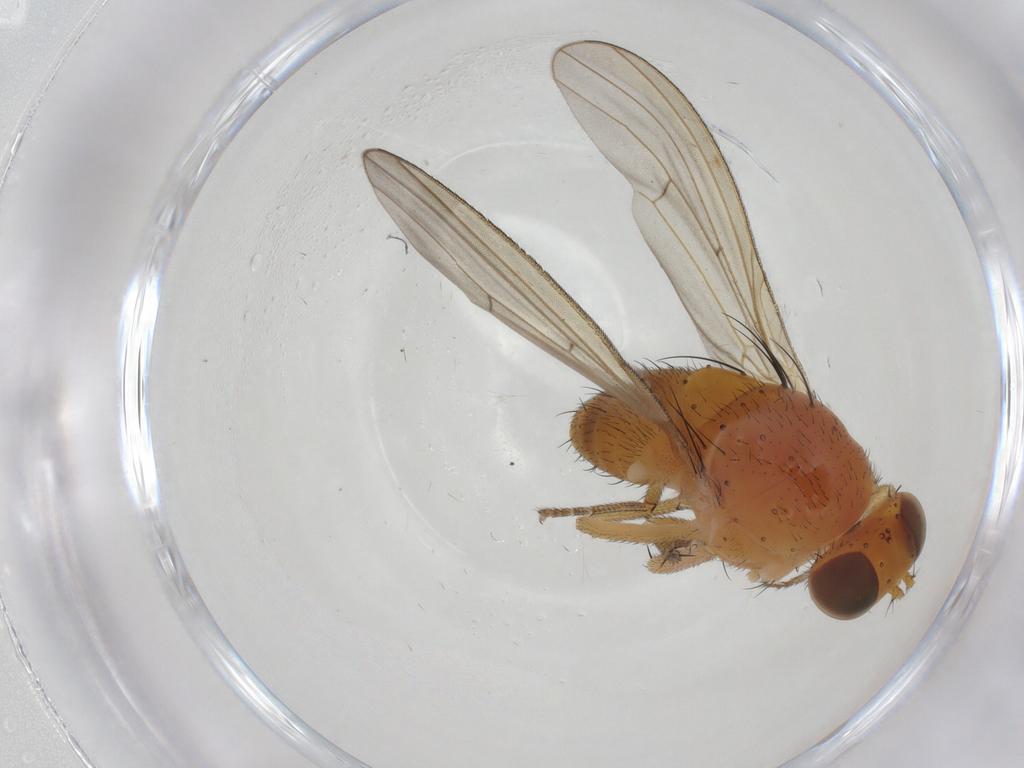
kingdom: Animalia
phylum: Arthropoda
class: Insecta
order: Diptera
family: Lauxaniidae
